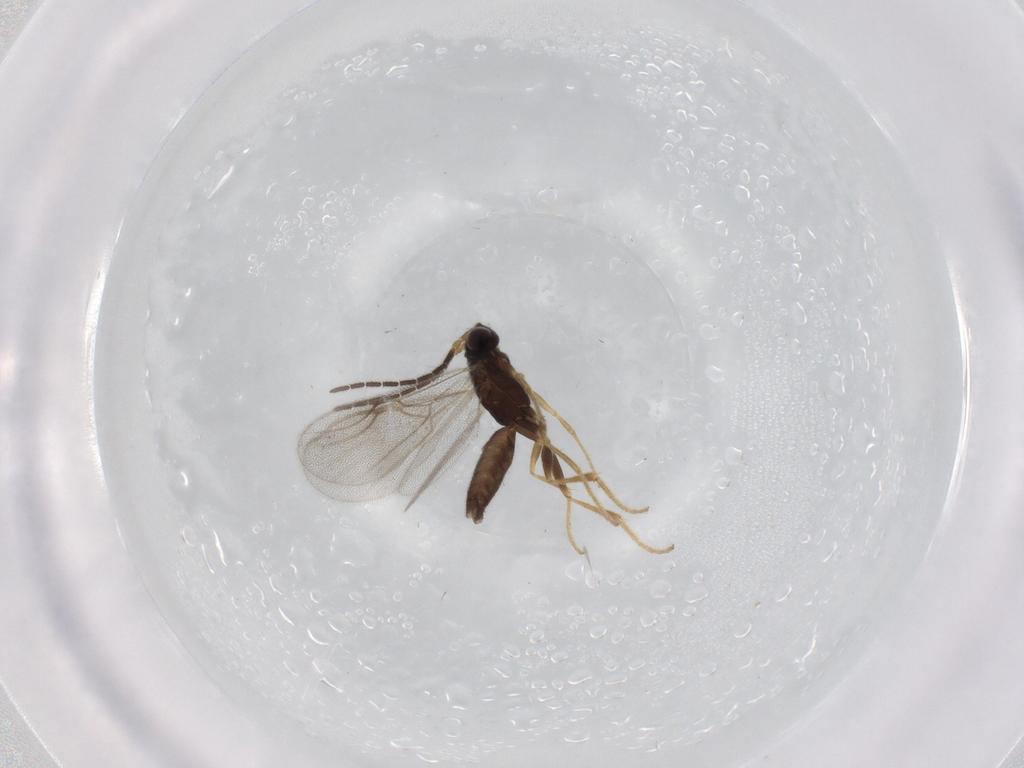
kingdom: Animalia
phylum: Arthropoda
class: Insecta
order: Hymenoptera
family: Dryinidae
